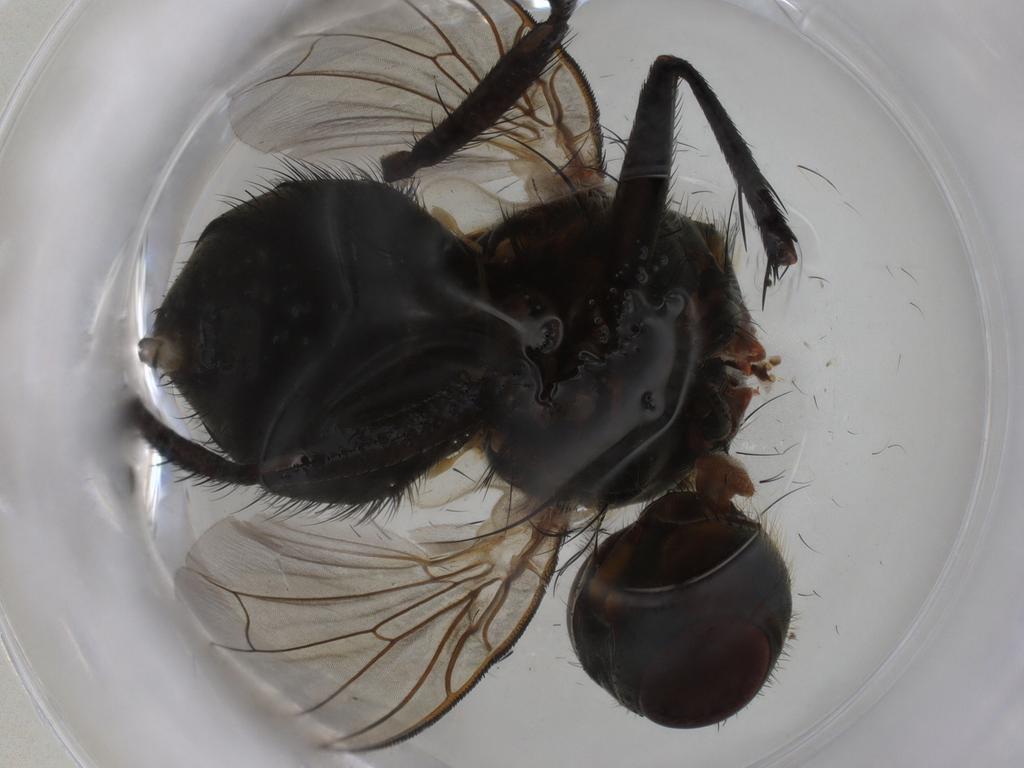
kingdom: Animalia
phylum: Arthropoda
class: Insecta
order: Diptera
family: Polleniidae
